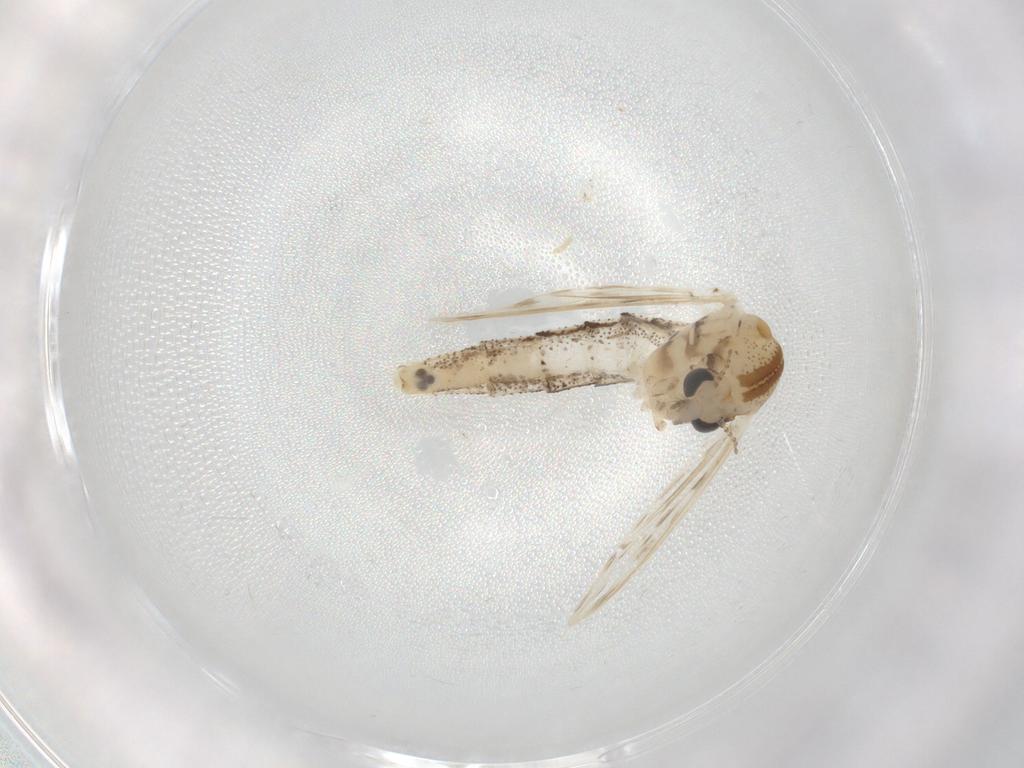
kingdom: Animalia
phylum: Arthropoda
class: Insecta
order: Diptera
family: Chaoboridae
